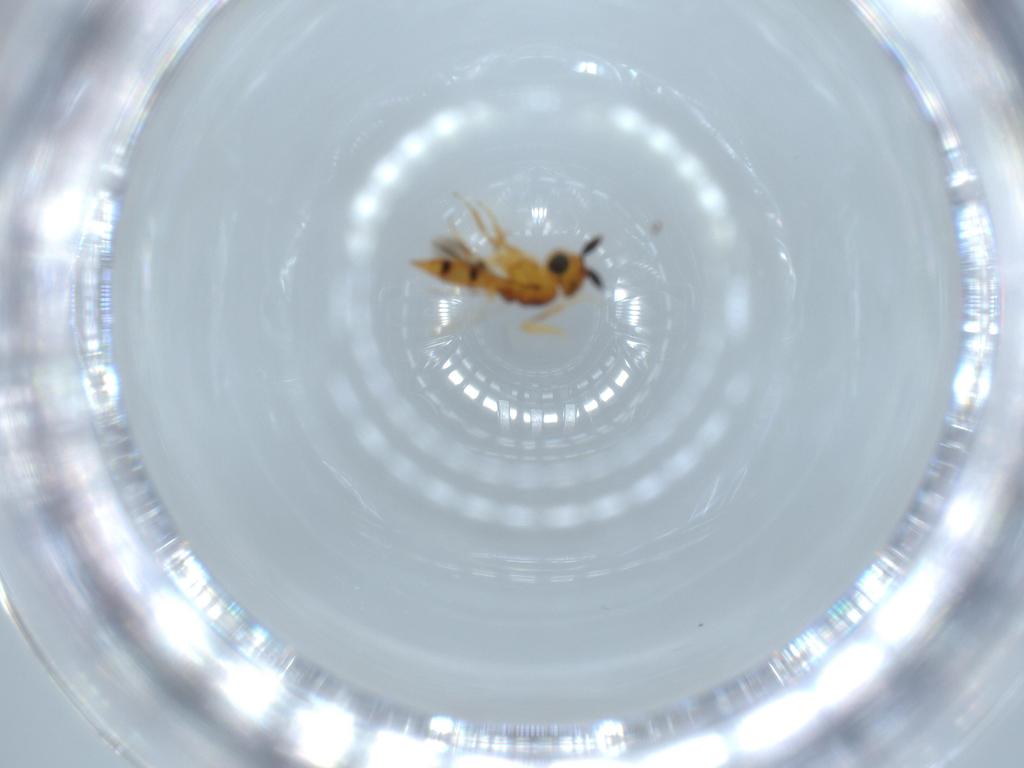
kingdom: Animalia
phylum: Arthropoda
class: Insecta
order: Hymenoptera
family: Scelionidae
